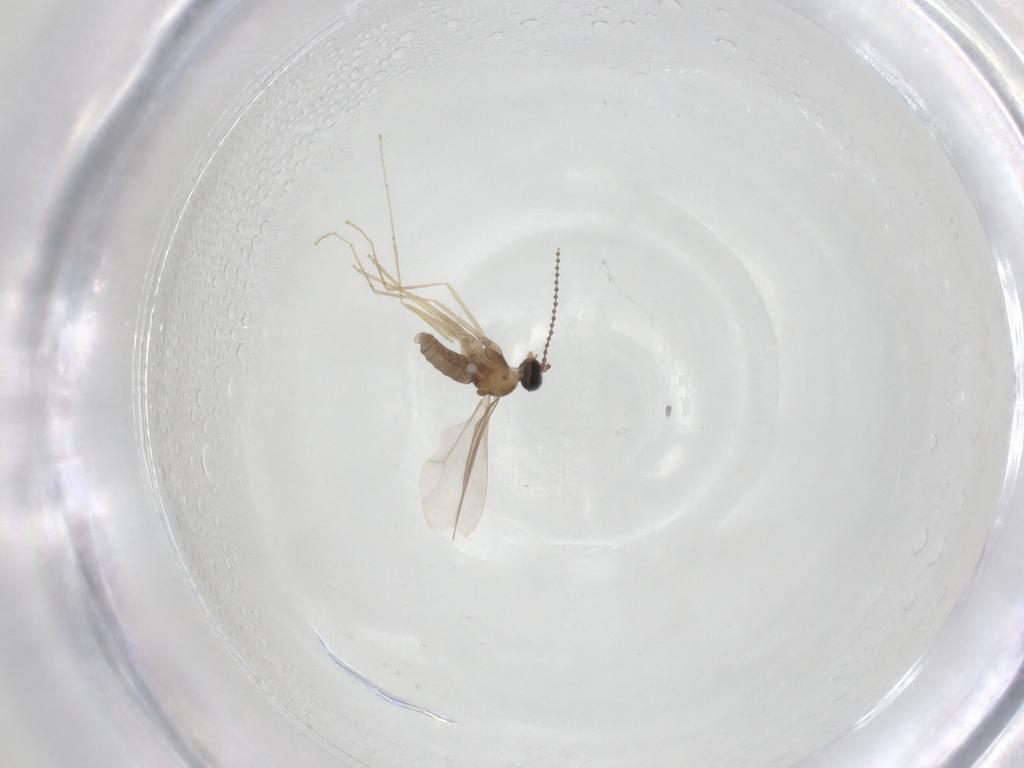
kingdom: Animalia
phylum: Arthropoda
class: Insecta
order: Diptera
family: Cecidomyiidae
